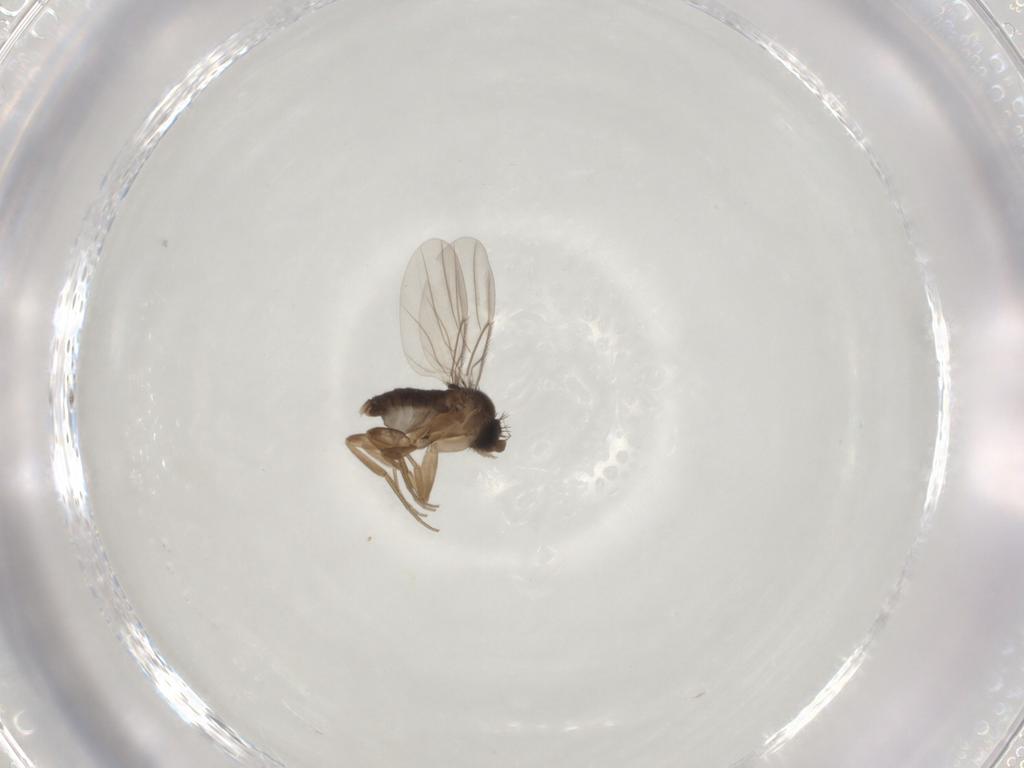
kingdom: Animalia
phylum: Arthropoda
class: Insecta
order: Diptera
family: Phoridae
